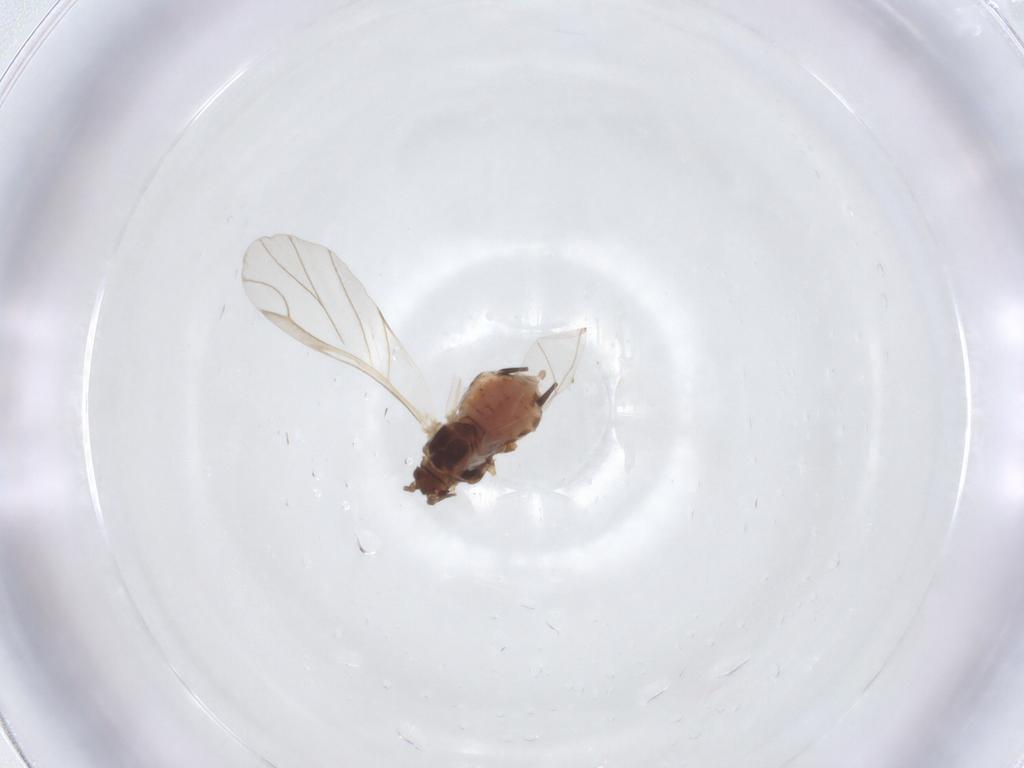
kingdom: Animalia
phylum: Arthropoda
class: Insecta
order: Hemiptera
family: Aphididae
